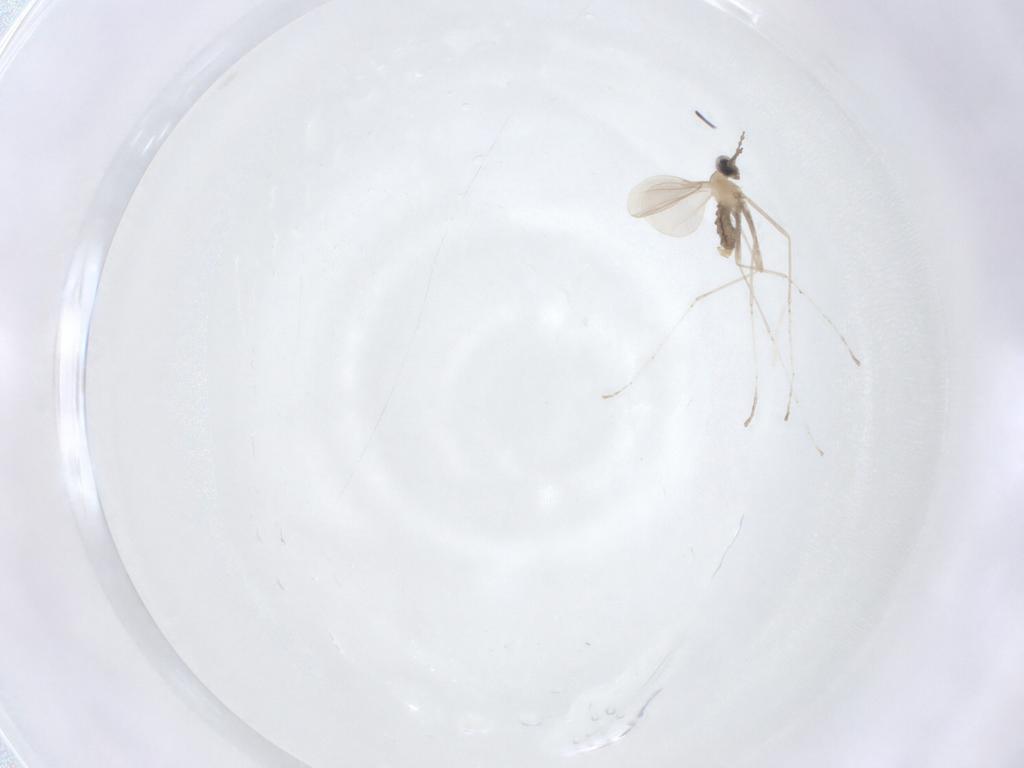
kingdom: Animalia
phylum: Arthropoda
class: Insecta
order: Diptera
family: Cecidomyiidae
